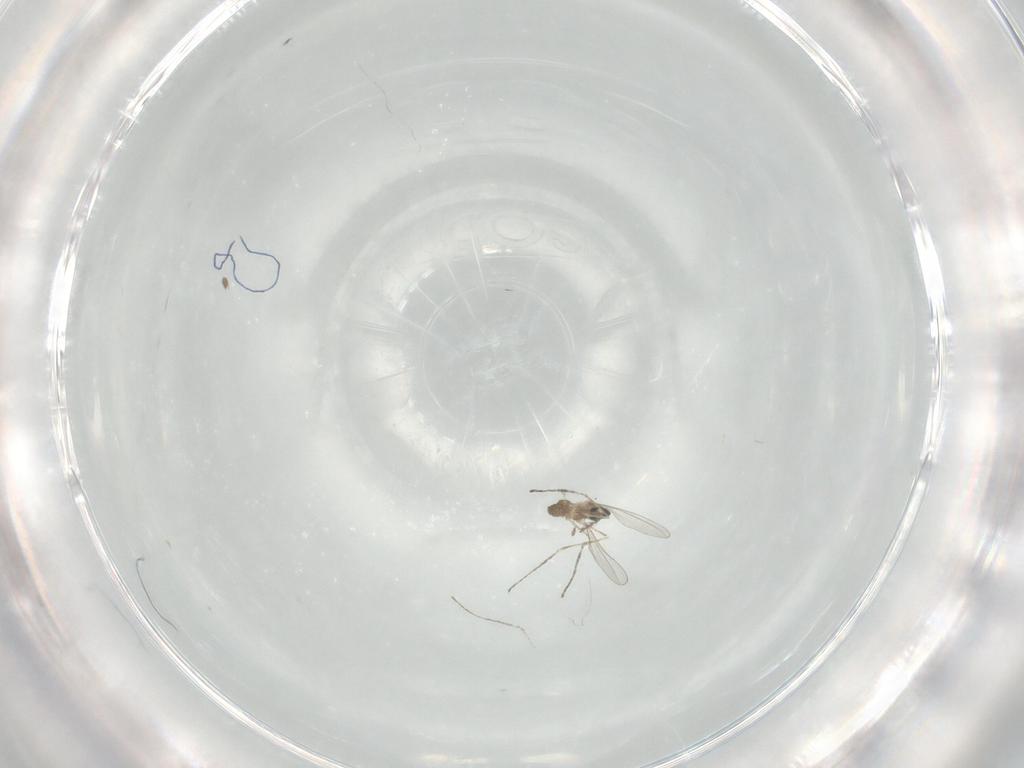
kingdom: Animalia
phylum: Arthropoda
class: Insecta
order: Diptera
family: Cecidomyiidae
